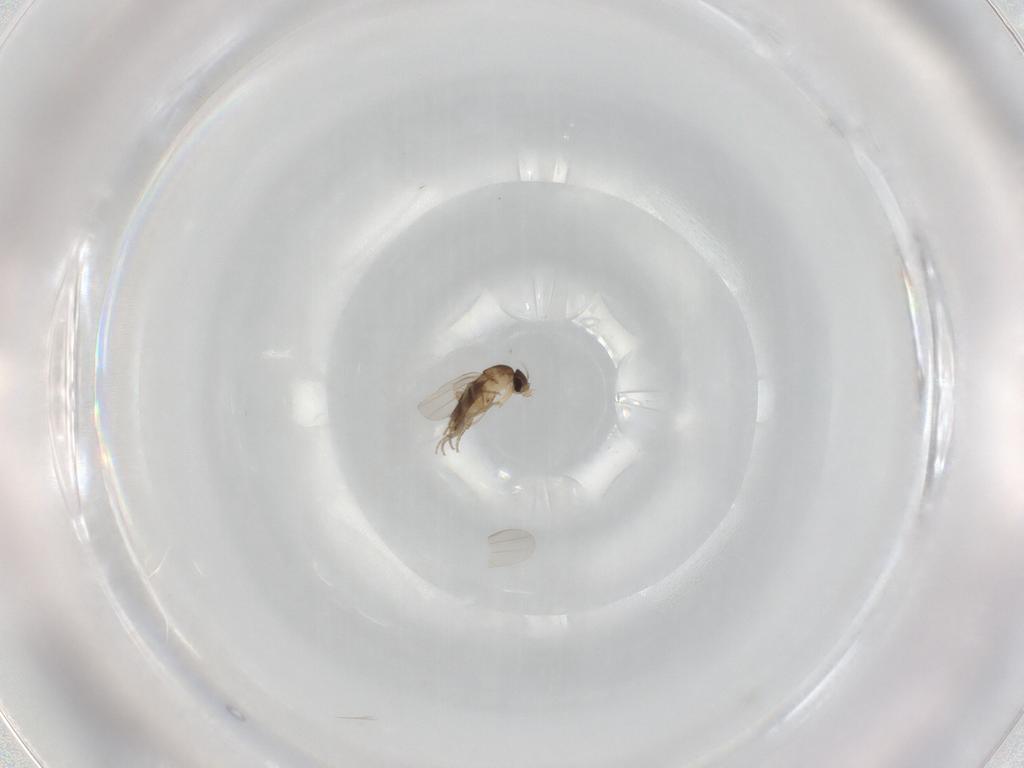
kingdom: Animalia
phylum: Arthropoda
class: Insecta
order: Diptera
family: Phoridae
